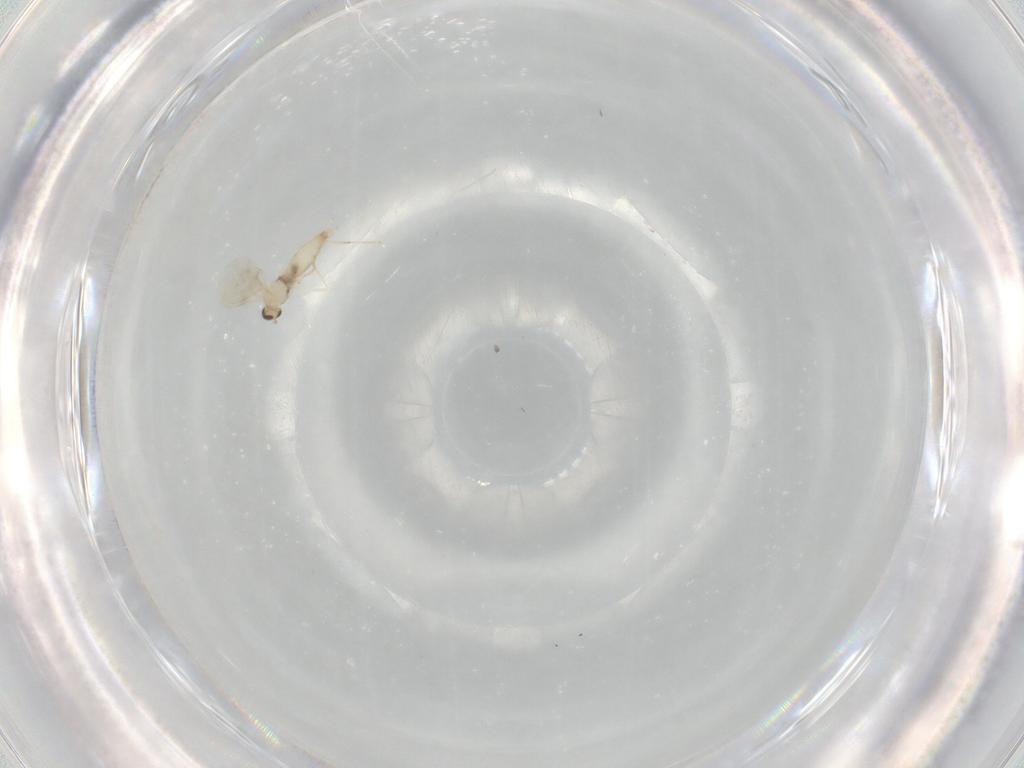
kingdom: Animalia
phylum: Arthropoda
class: Insecta
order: Diptera
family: Cecidomyiidae
